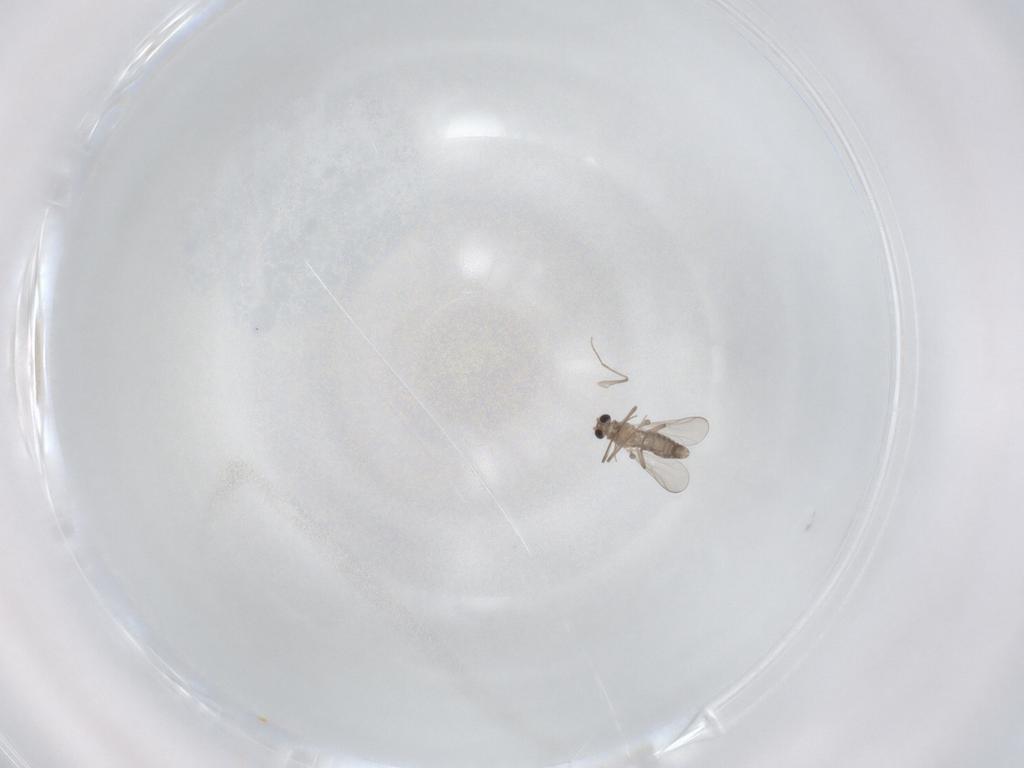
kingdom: Animalia
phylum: Arthropoda
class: Insecta
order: Diptera
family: Chironomidae
